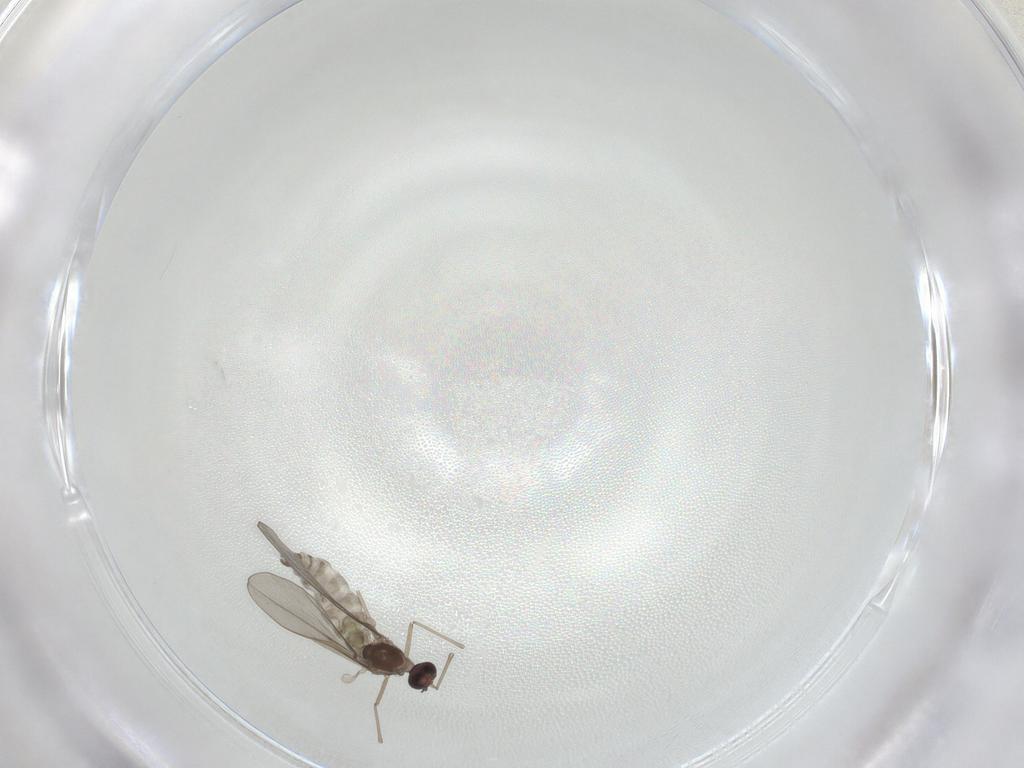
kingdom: Animalia
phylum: Arthropoda
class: Insecta
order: Diptera
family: Dolichopodidae
